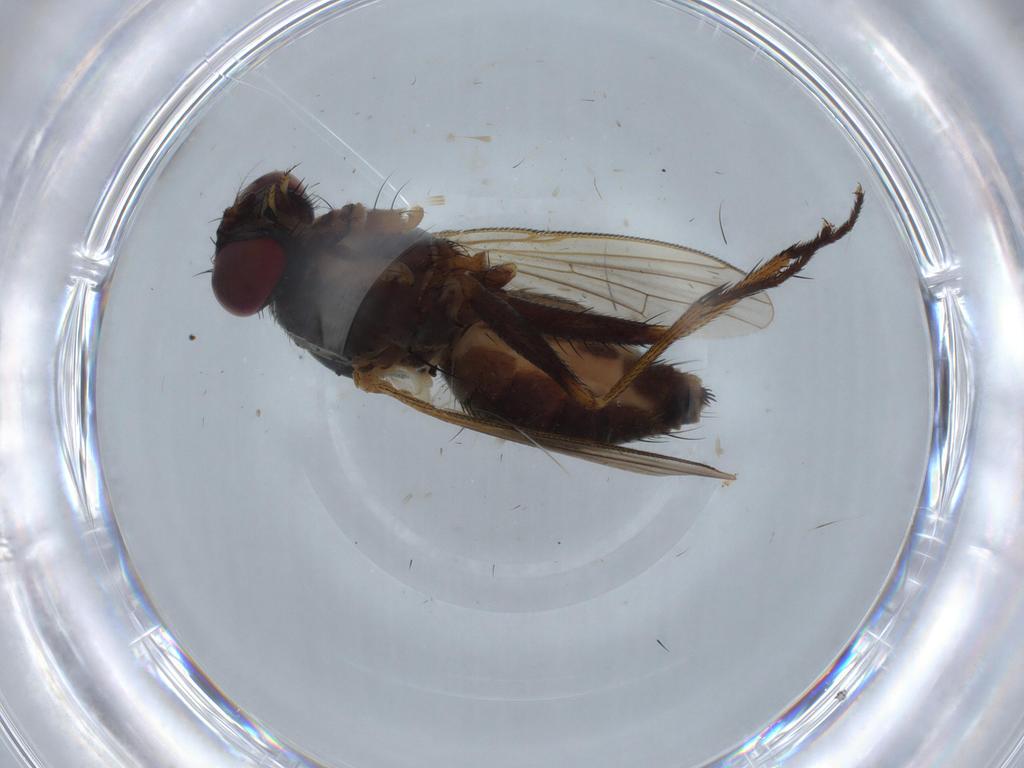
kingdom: Animalia
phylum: Arthropoda
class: Insecta
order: Diptera
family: Muscidae
